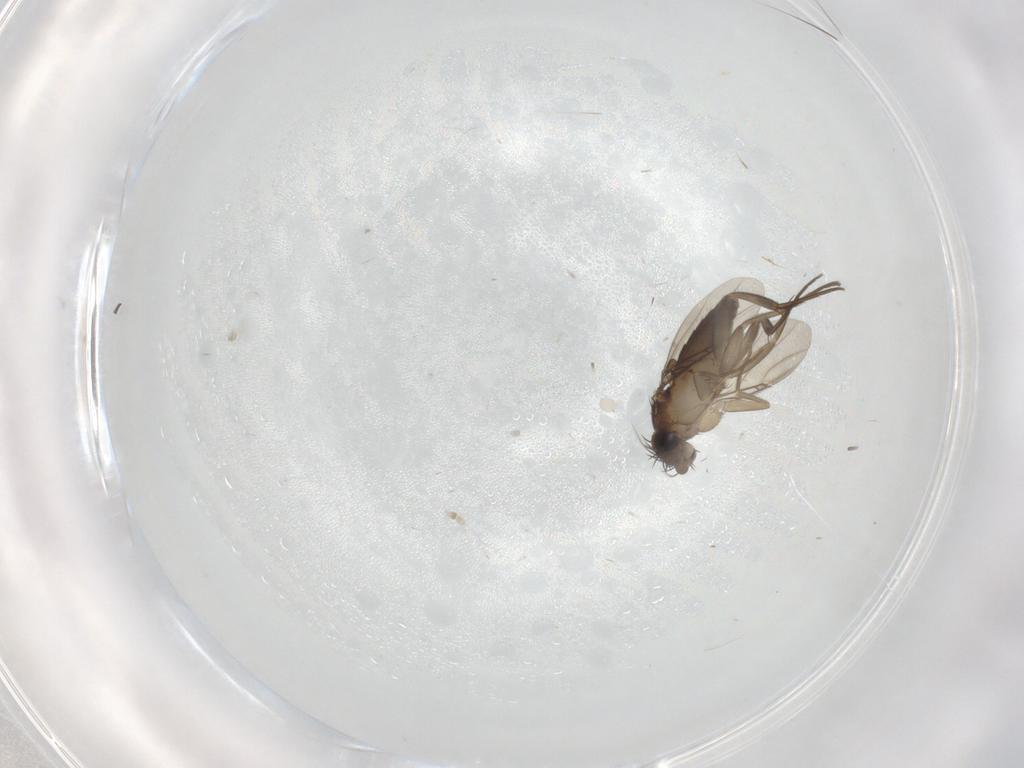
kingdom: Animalia
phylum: Arthropoda
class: Insecta
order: Diptera
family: Phoridae
